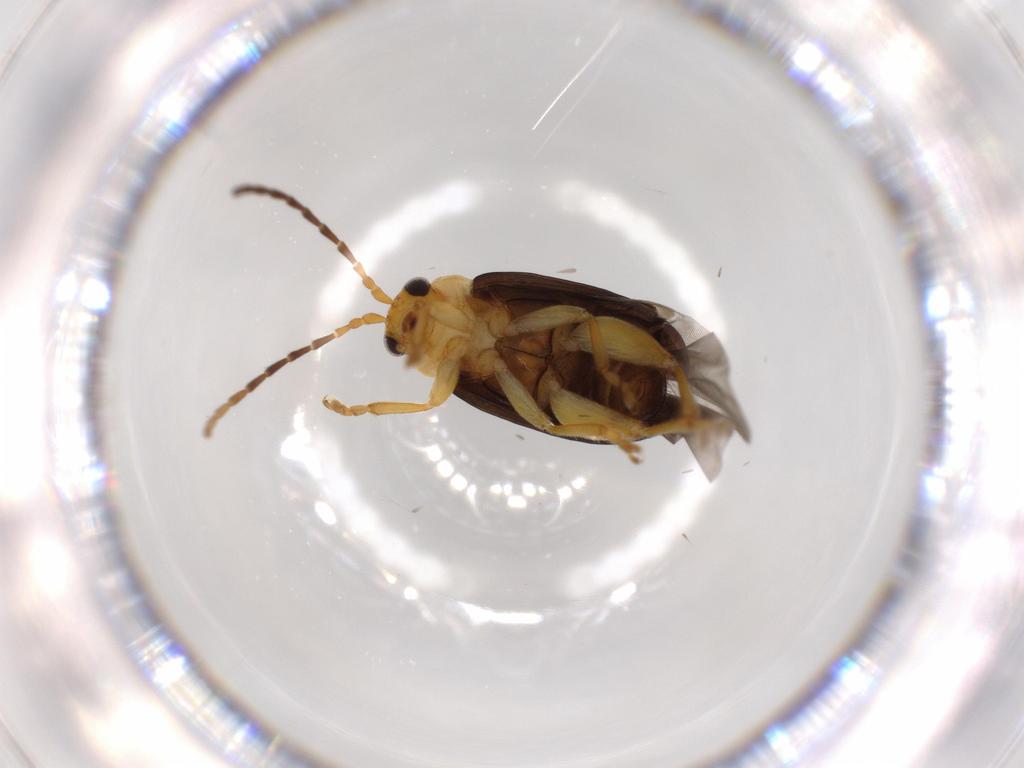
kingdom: Animalia
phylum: Arthropoda
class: Insecta
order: Coleoptera
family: Chrysomelidae
